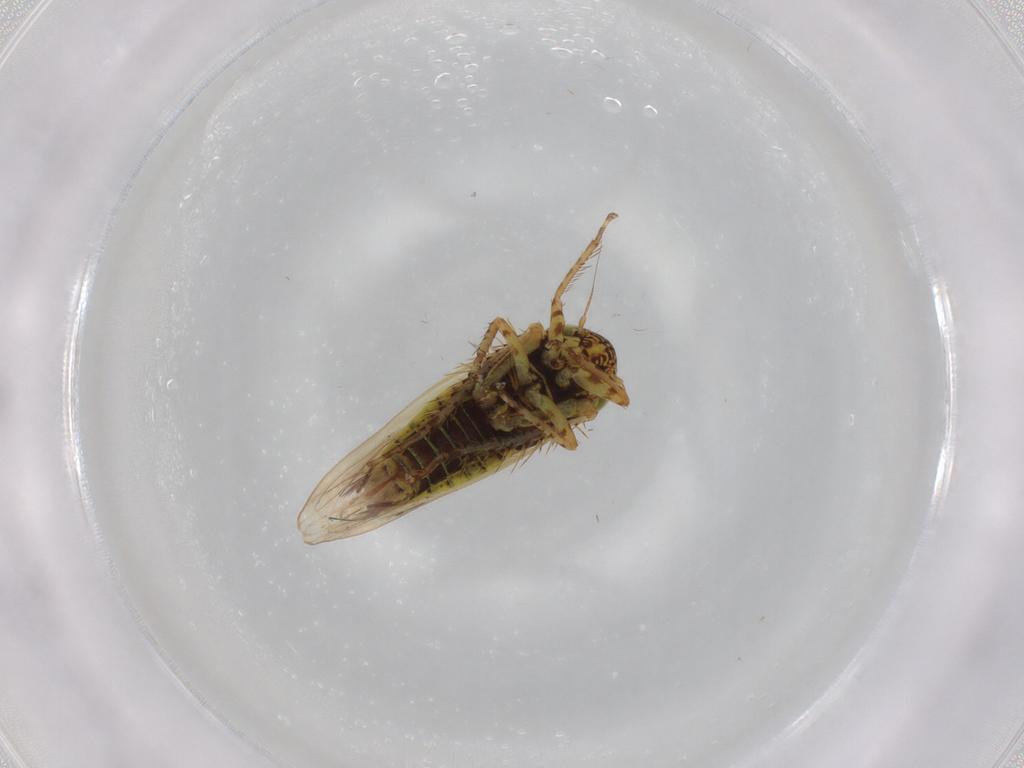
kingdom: Animalia
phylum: Arthropoda
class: Insecta
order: Hemiptera
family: Cicadellidae
